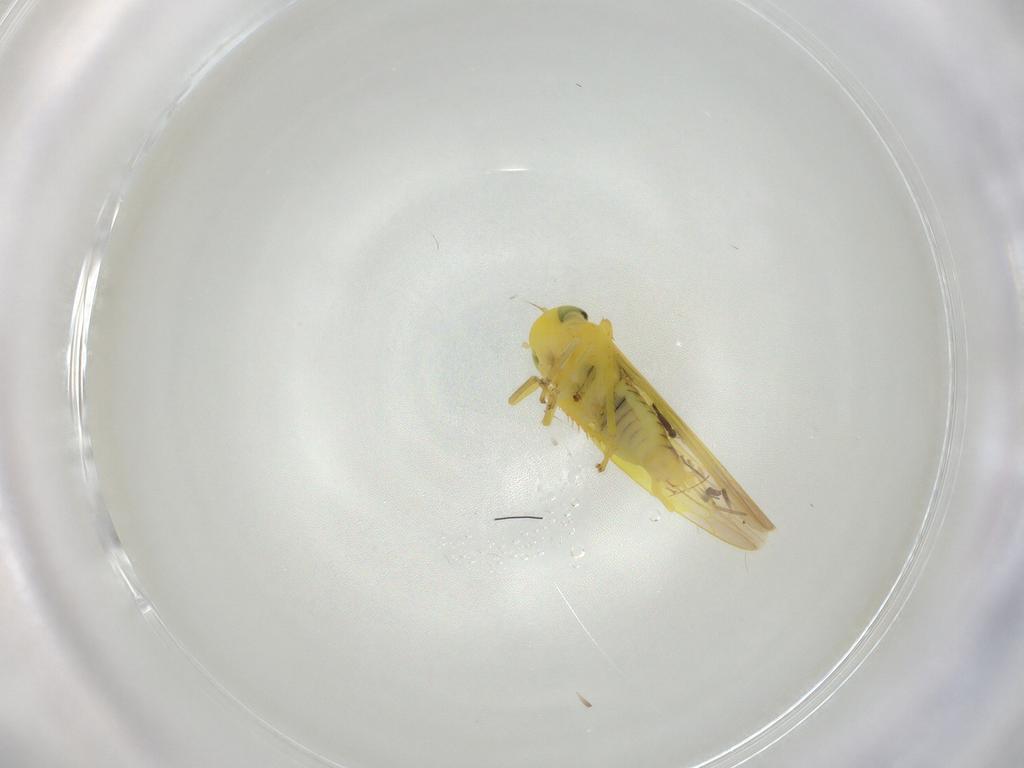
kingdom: Animalia
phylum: Arthropoda
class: Insecta
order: Hemiptera
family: Cicadellidae
